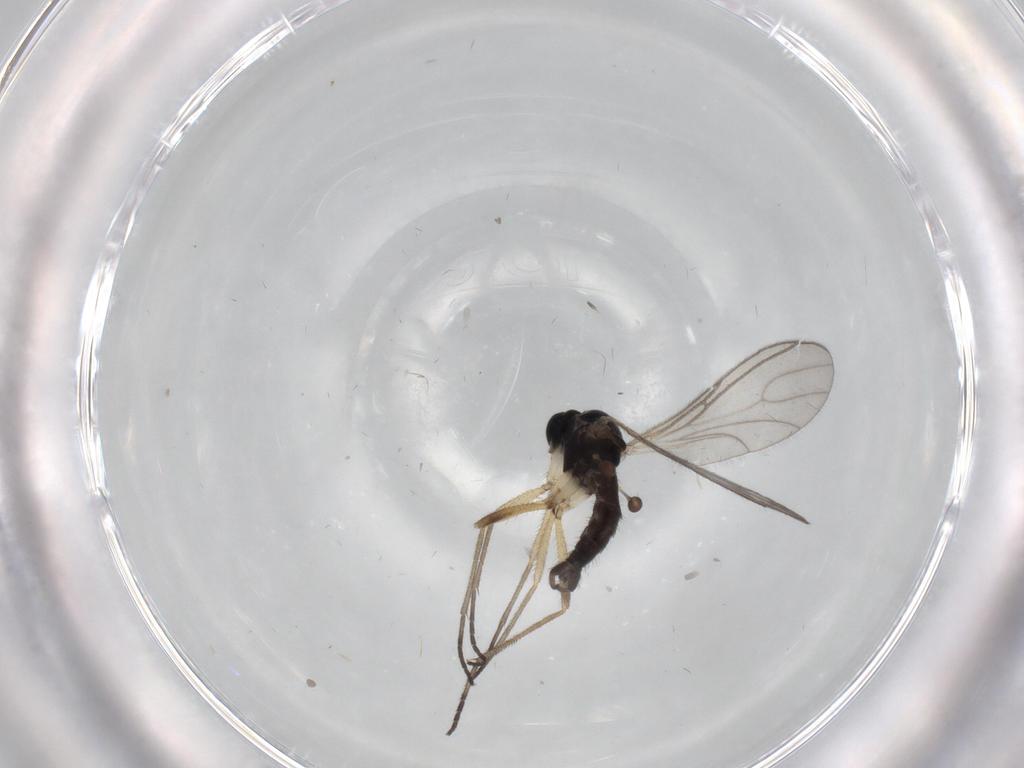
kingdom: Animalia
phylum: Arthropoda
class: Insecta
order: Diptera
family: Sciaridae
